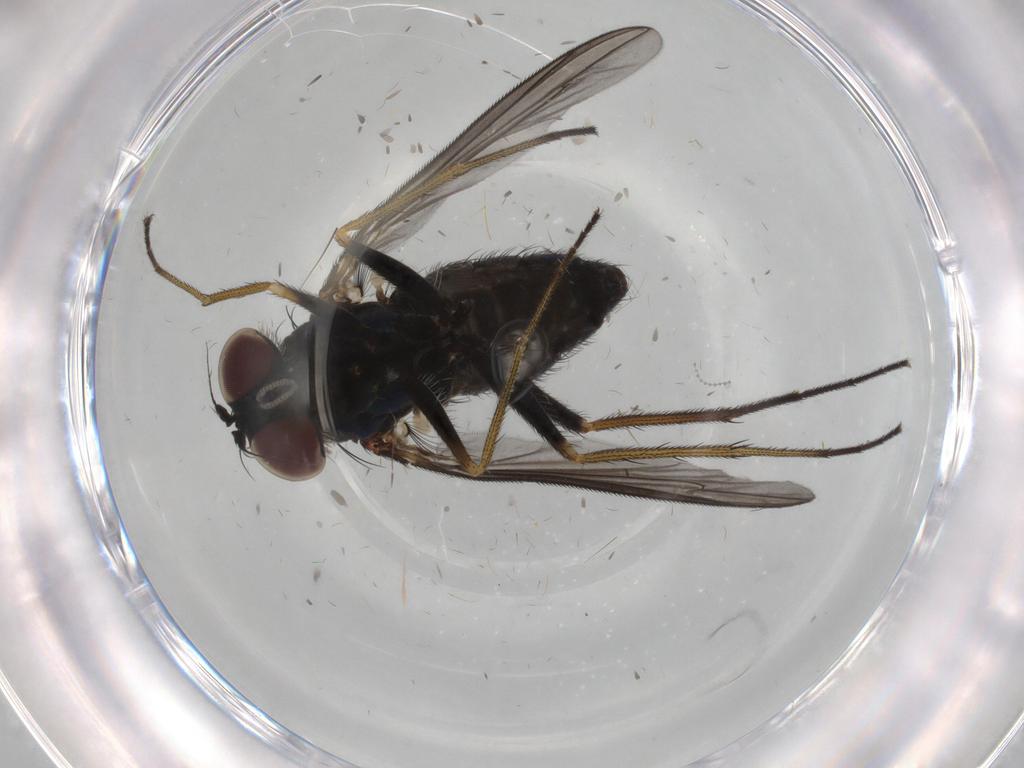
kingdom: Animalia
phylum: Arthropoda
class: Insecta
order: Diptera
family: Dolichopodidae
